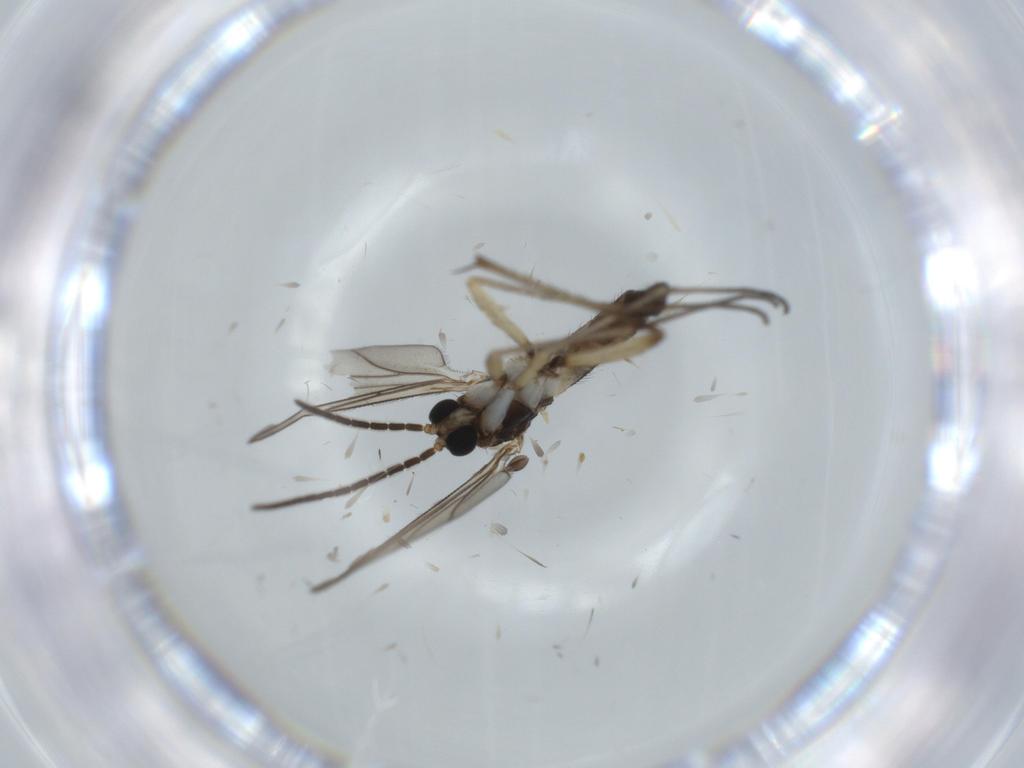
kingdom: Animalia
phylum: Arthropoda
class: Insecta
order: Diptera
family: Sciaridae
